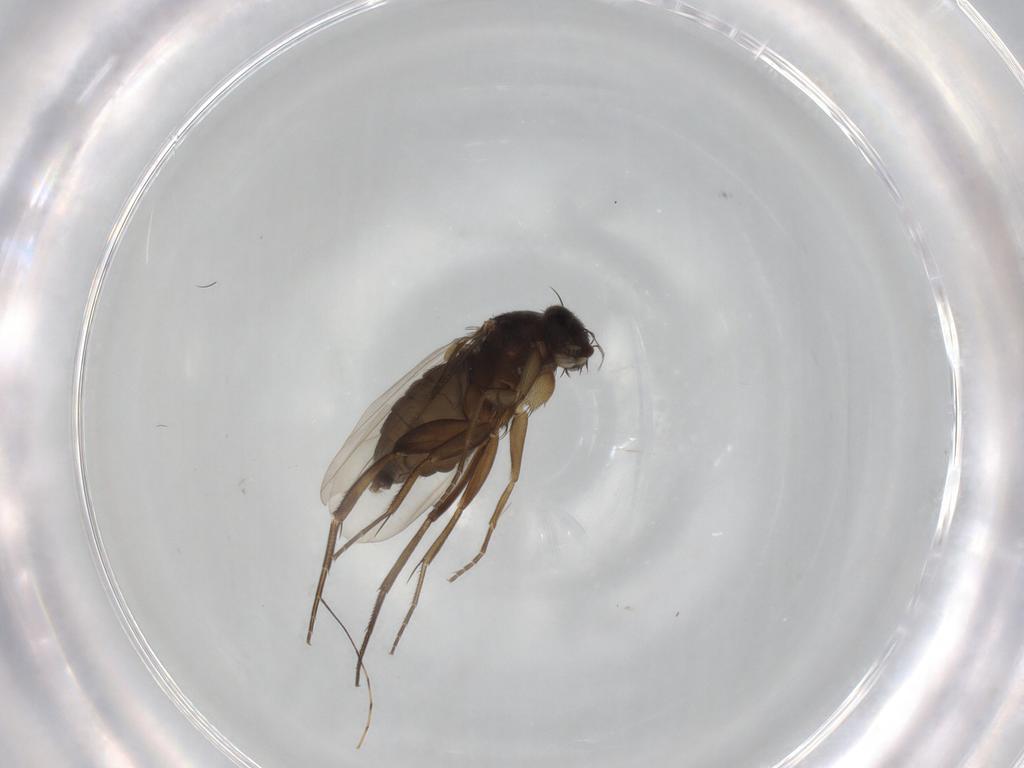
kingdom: Animalia
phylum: Arthropoda
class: Insecta
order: Diptera
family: Phoridae
